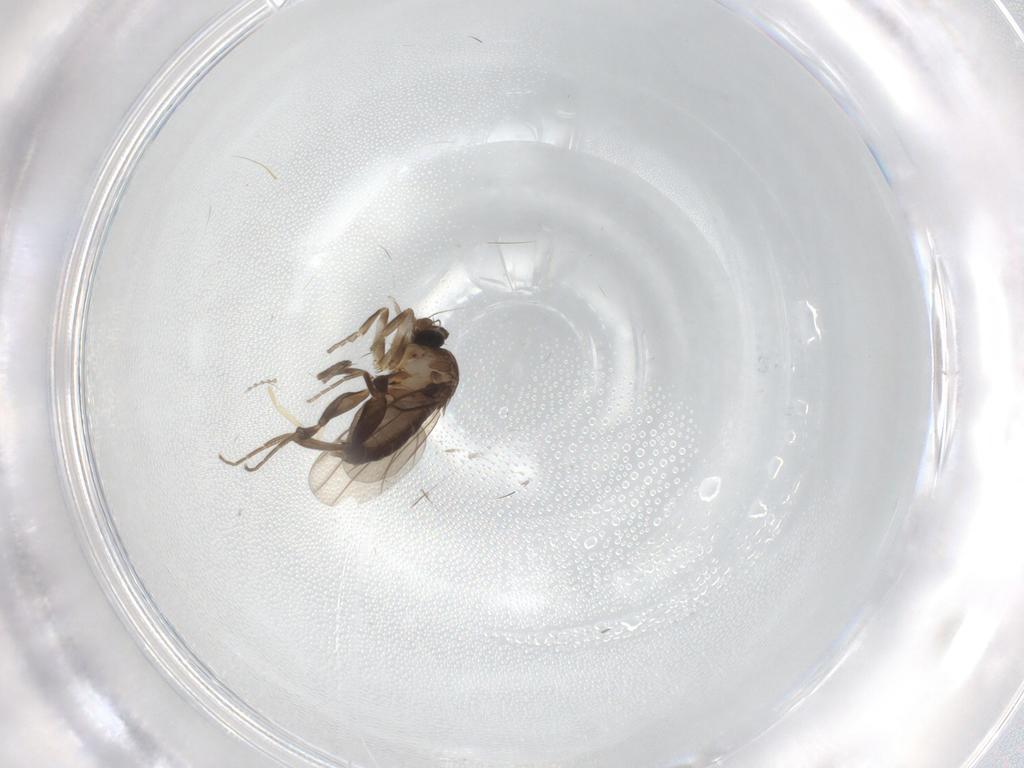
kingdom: Animalia
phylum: Arthropoda
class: Insecta
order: Diptera
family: Psychodidae
